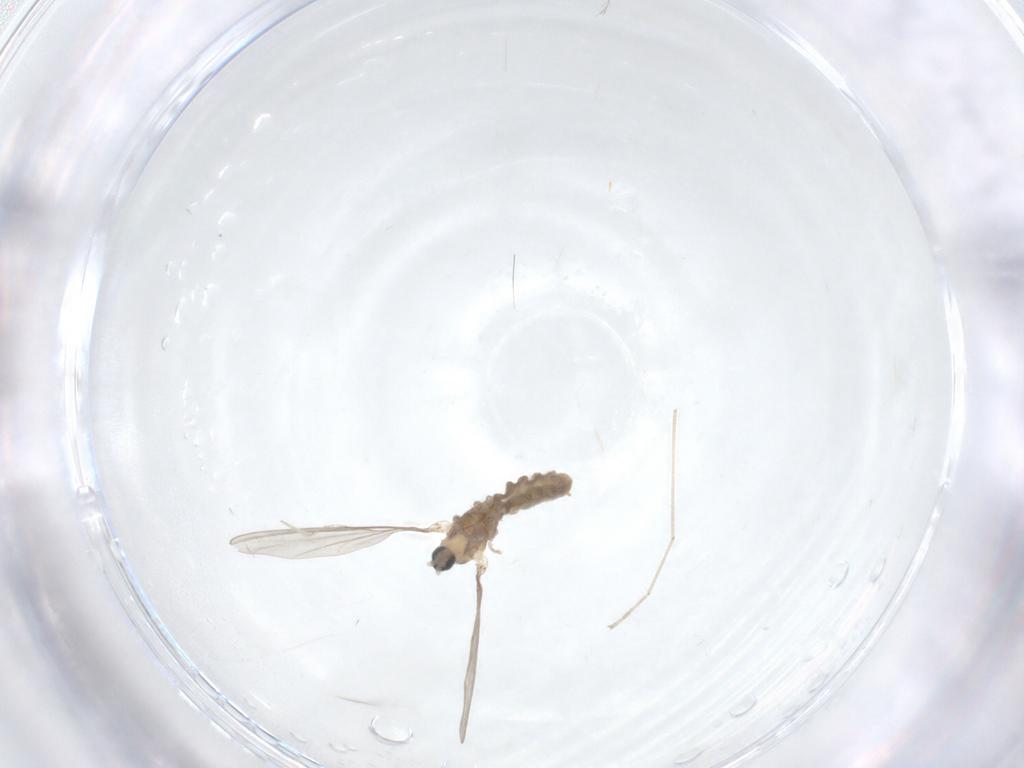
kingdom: Animalia
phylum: Arthropoda
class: Insecta
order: Diptera
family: Cecidomyiidae
